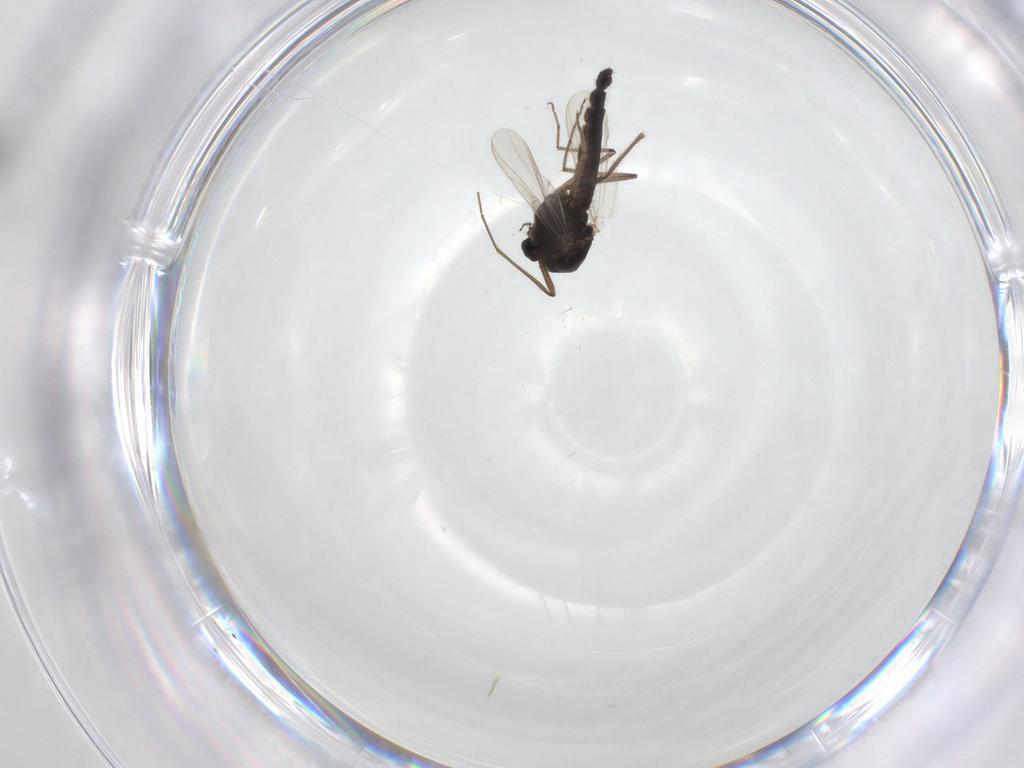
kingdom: Animalia
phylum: Arthropoda
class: Insecta
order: Diptera
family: Chironomidae
